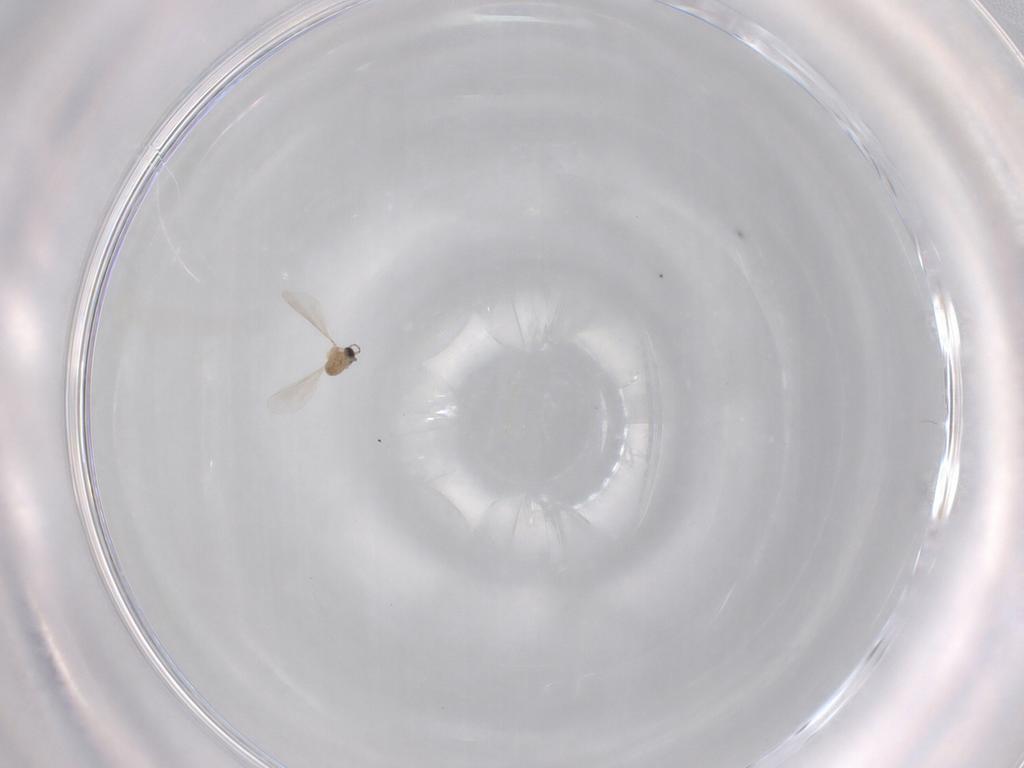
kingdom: Animalia
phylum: Arthropoda
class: Insecta
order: Diptera
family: Cecidomyiidae
